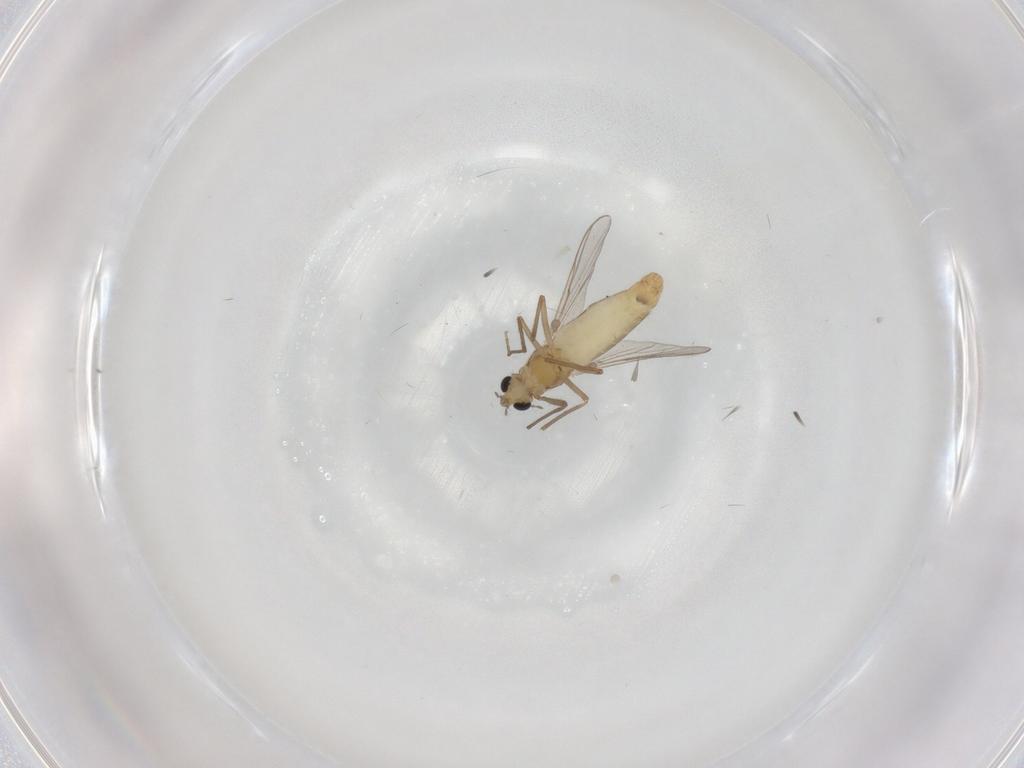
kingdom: Animalia
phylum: Arthropoda
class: Insecta
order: Diptera
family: Chironomidae
